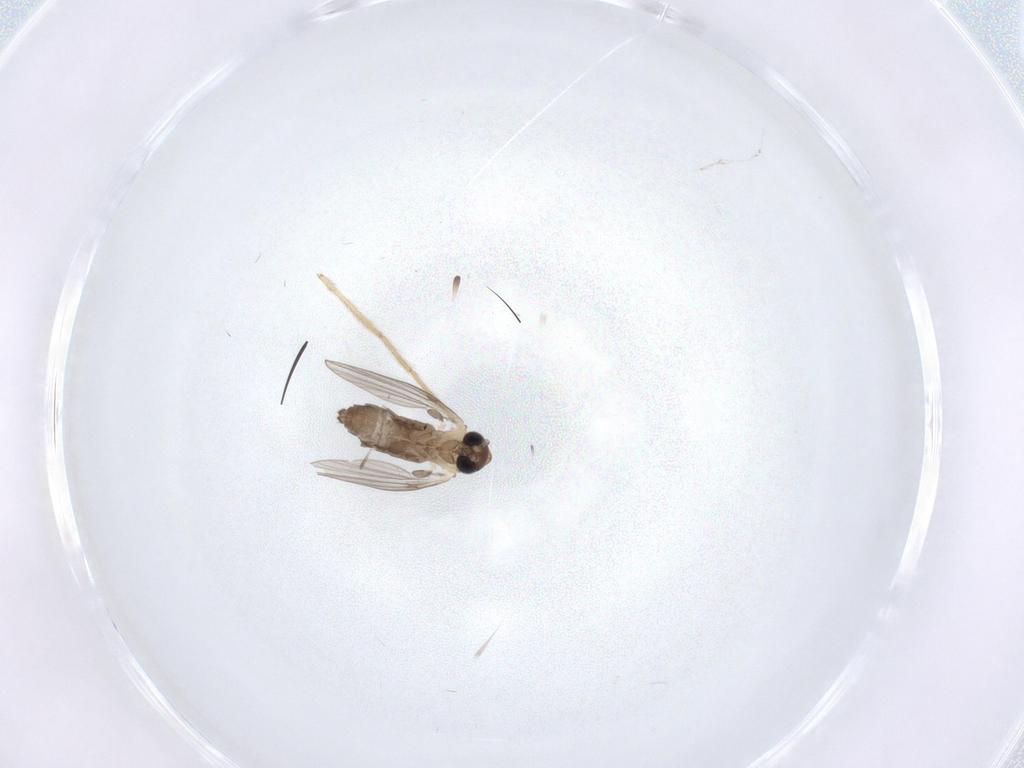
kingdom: Animalia
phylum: Arthropoda
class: Insecta
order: Diptera
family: Psychodidae
